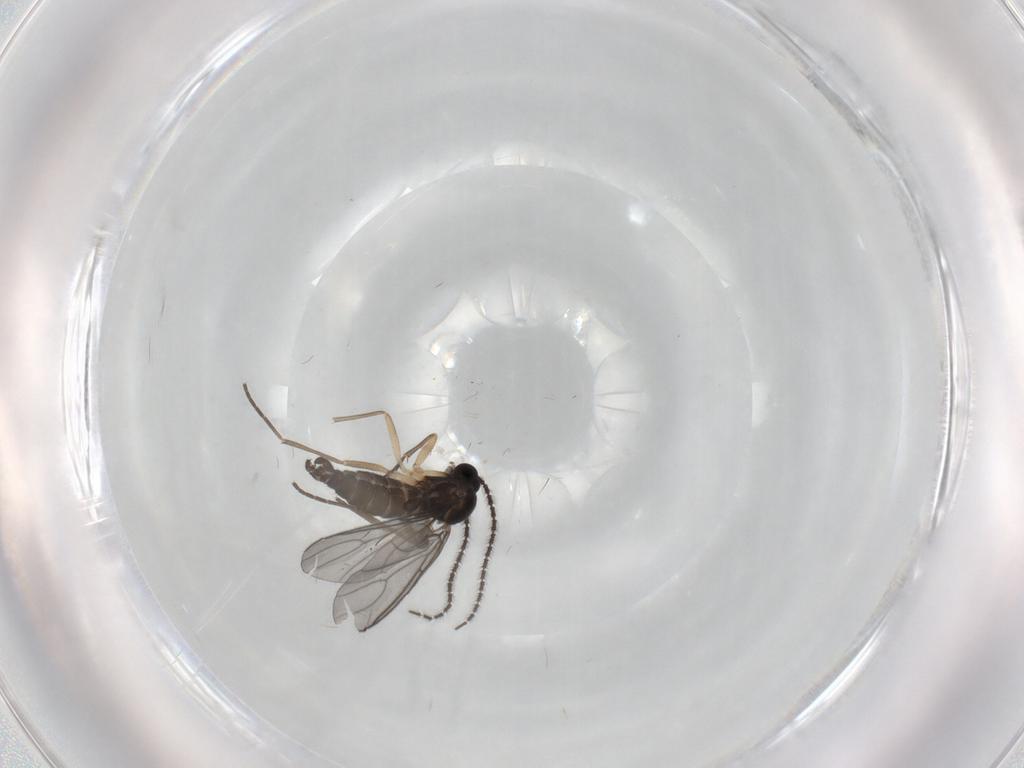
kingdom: Animalia
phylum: Arthropoda
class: Insecta
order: Diptera
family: Sciaridae
